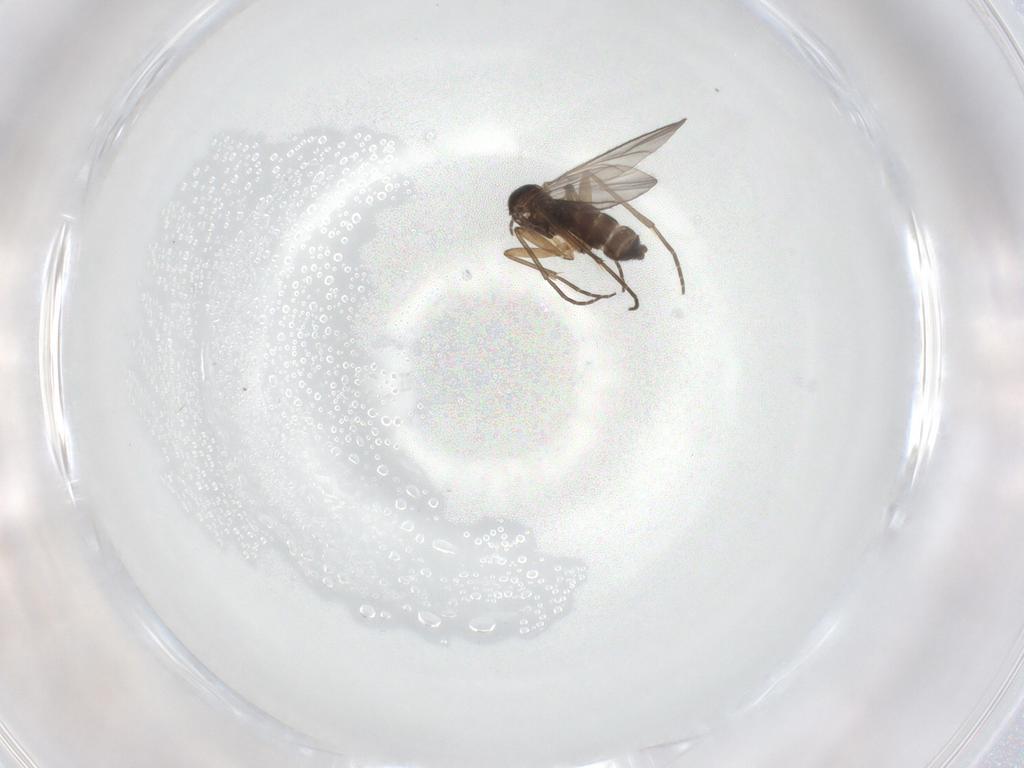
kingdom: Animalia
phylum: Arthropoda
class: Insecta
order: Diptera
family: Sciaridae
